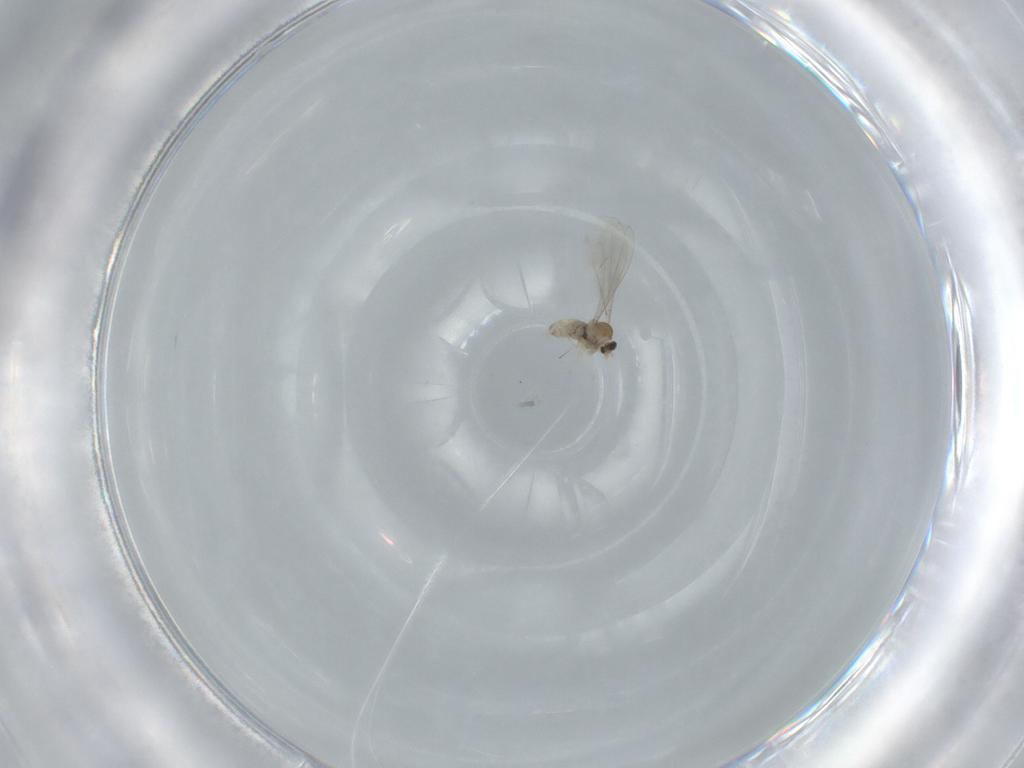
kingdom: Animalia
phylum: Arthropoda
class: Insecta
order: Diptera
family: Cecidomyiidae
